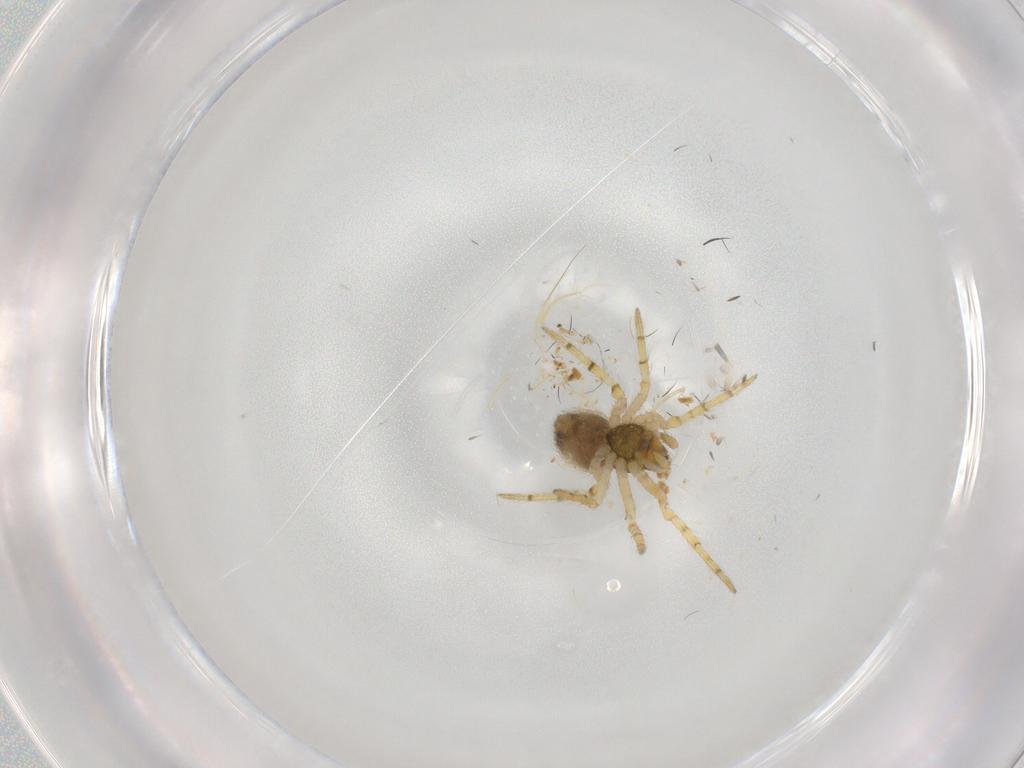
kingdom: Animalia
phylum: Arthropoda
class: Arachnida
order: Araneae
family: Theridiidae
